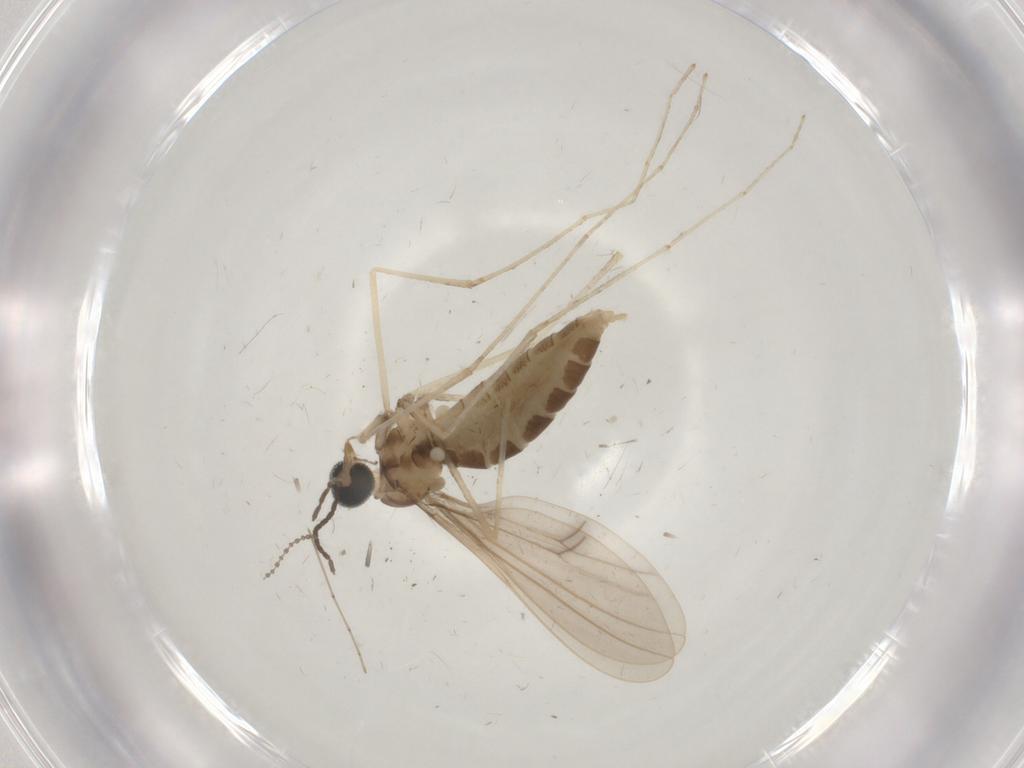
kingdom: Animalia
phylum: Arthropoda
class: Insecta
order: Diptera
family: Cecidomyiidae
